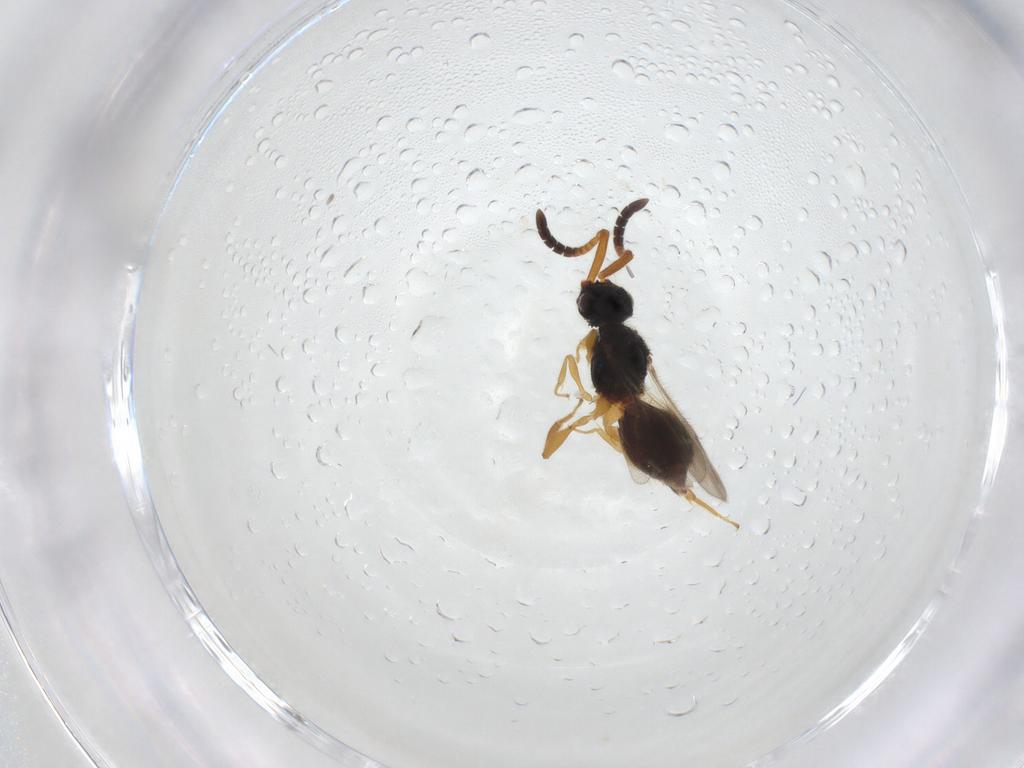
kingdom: Animalia
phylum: Arthropoda
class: Insecta
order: Hymenoptera
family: Megaspilidae
